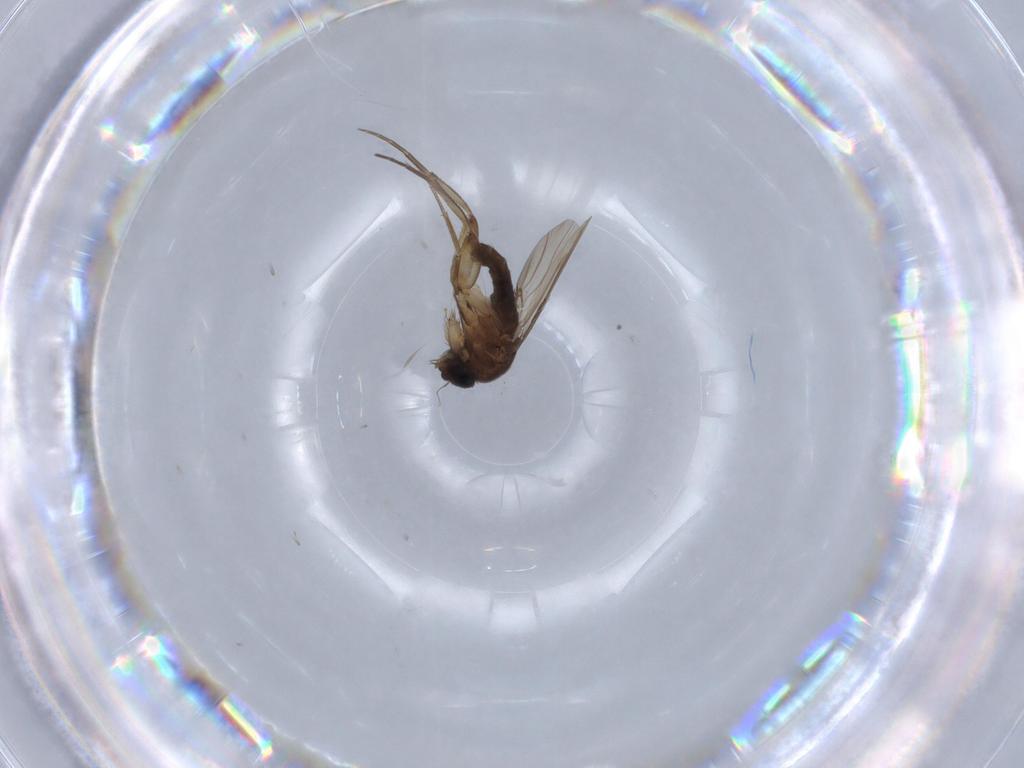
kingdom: Animalia
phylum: Arthropoda
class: Insecta
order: Diptera
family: Phoridae
